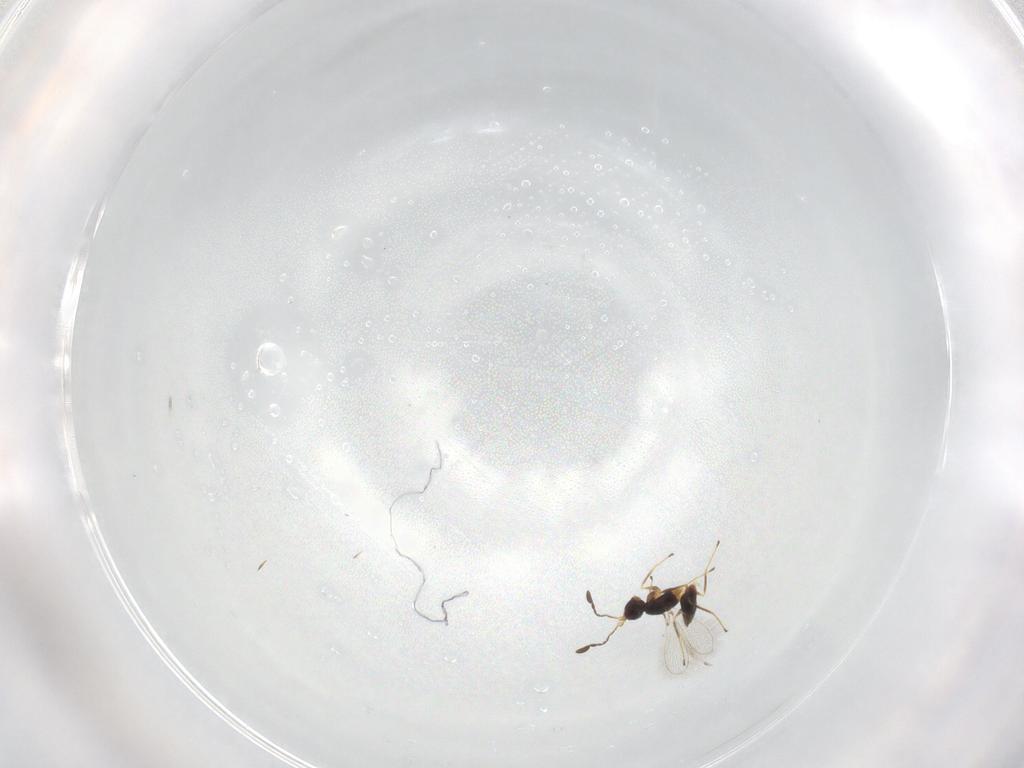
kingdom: Animalia
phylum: Arthropoda
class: Insecta
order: Hymenoptera
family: Mymaridae
